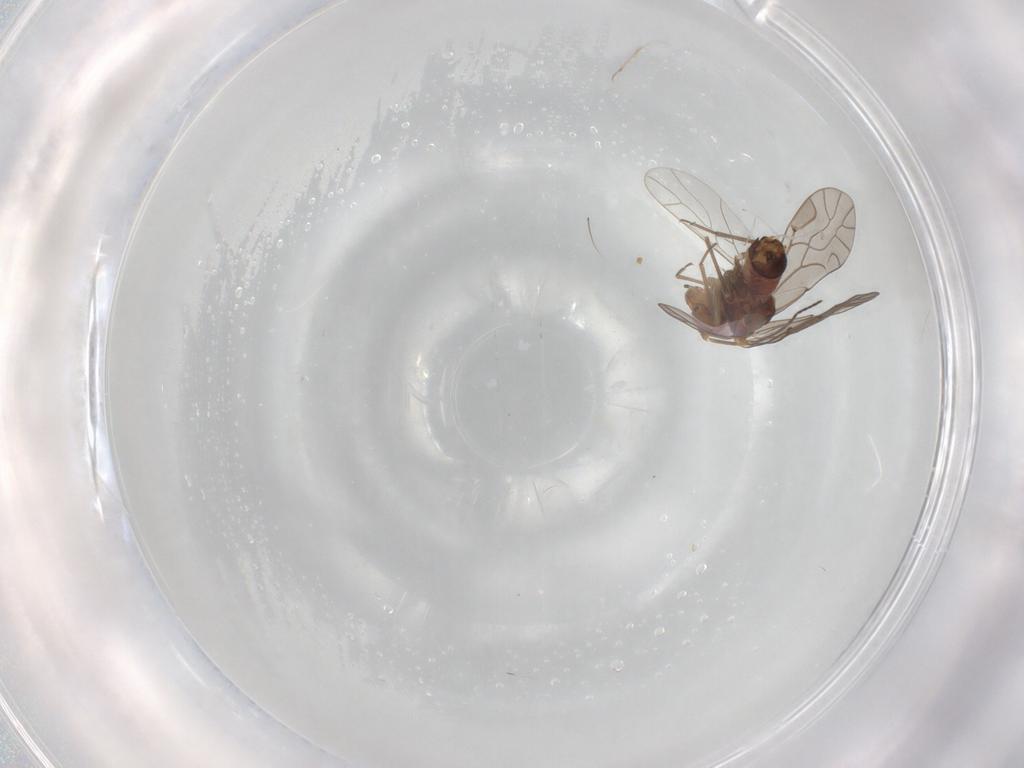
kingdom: Animalia
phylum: Arthropoda
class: Insecta
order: Psocodea
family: Lachesillidae
